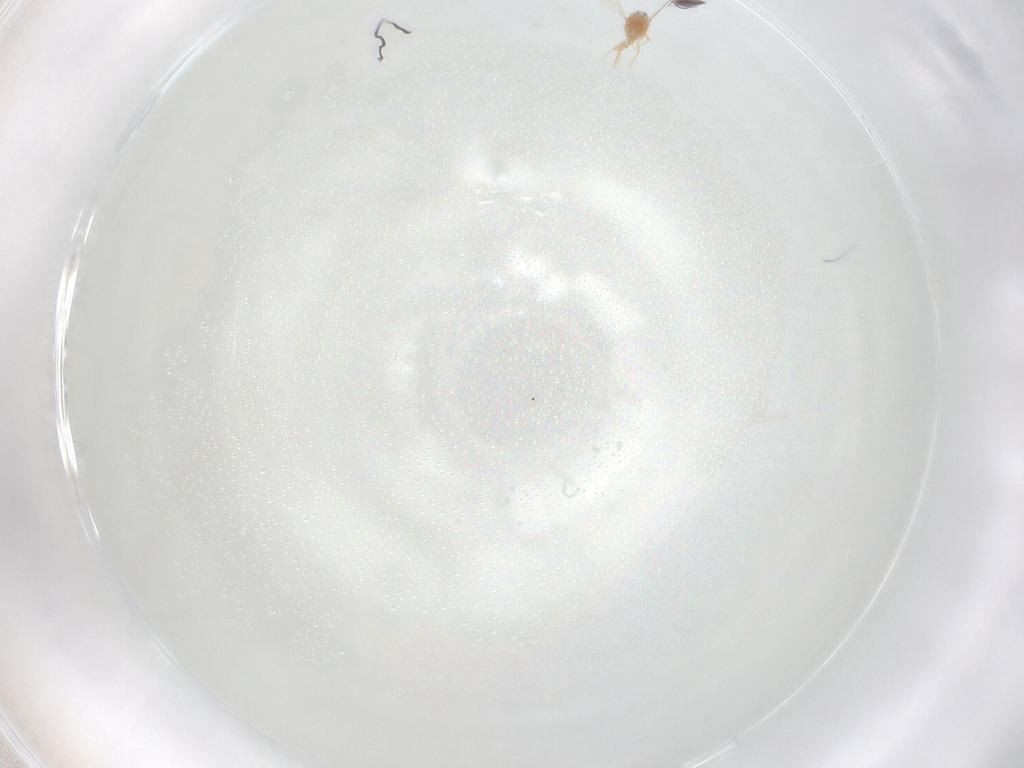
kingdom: Animalia
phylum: Arthropoda
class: Insecta
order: Diptera
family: Ceratopogonidae
